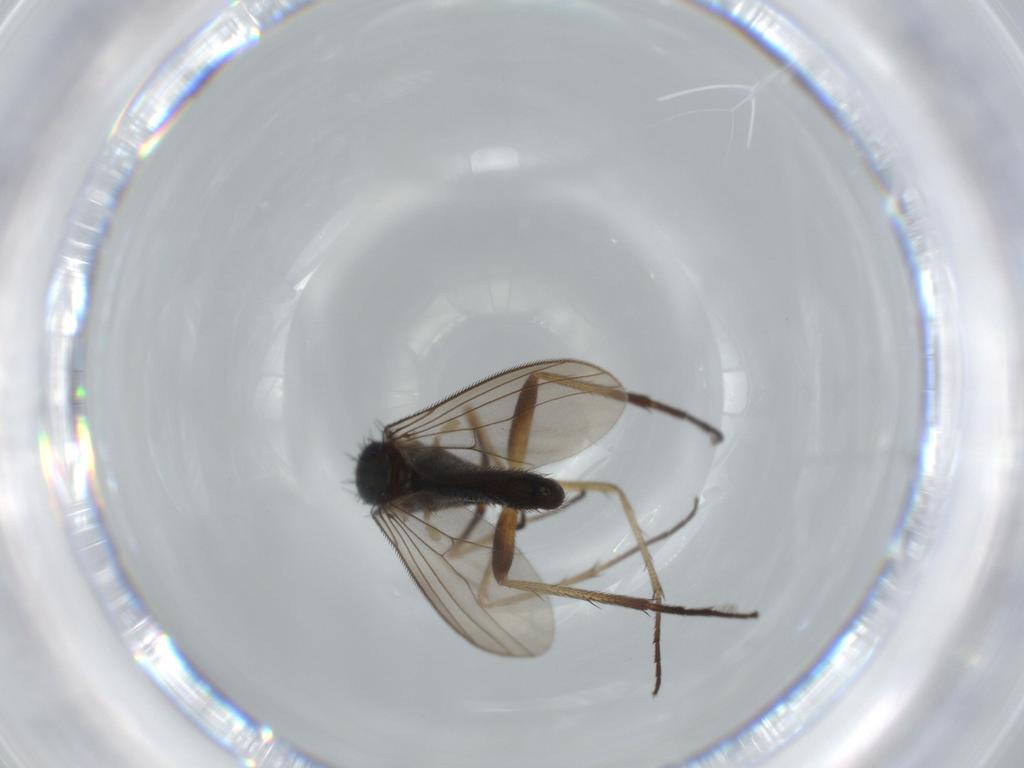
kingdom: Animalia
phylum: Arthropoda
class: Insecta
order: Diptera
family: Dolichopodidae
